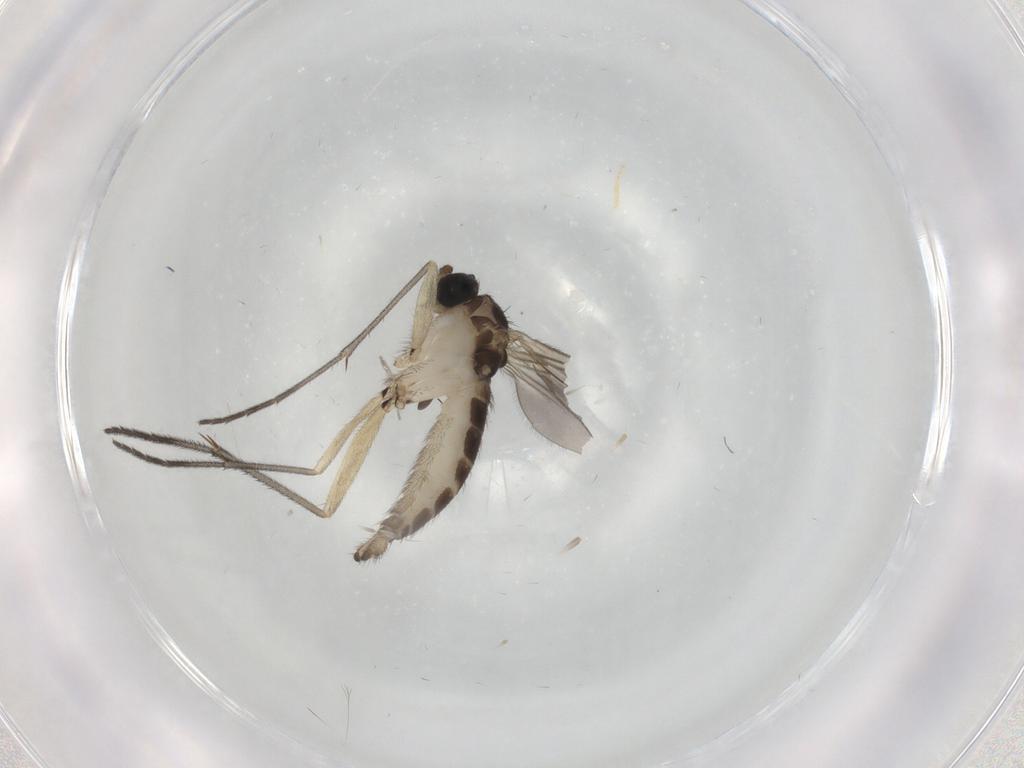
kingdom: Animalia
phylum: Arthropoda
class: Insecta
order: Diptera
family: Sciaridae
